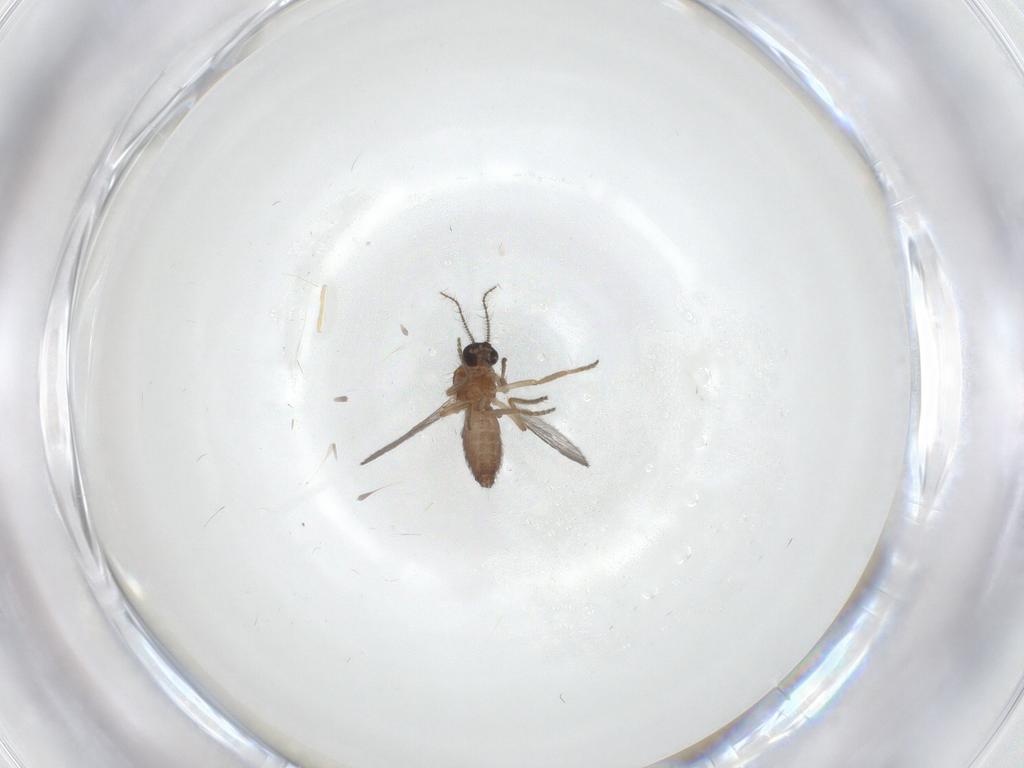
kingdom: Animalia
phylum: Arthropoda
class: Insecta
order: Diptera
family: Ceratopogonidae
